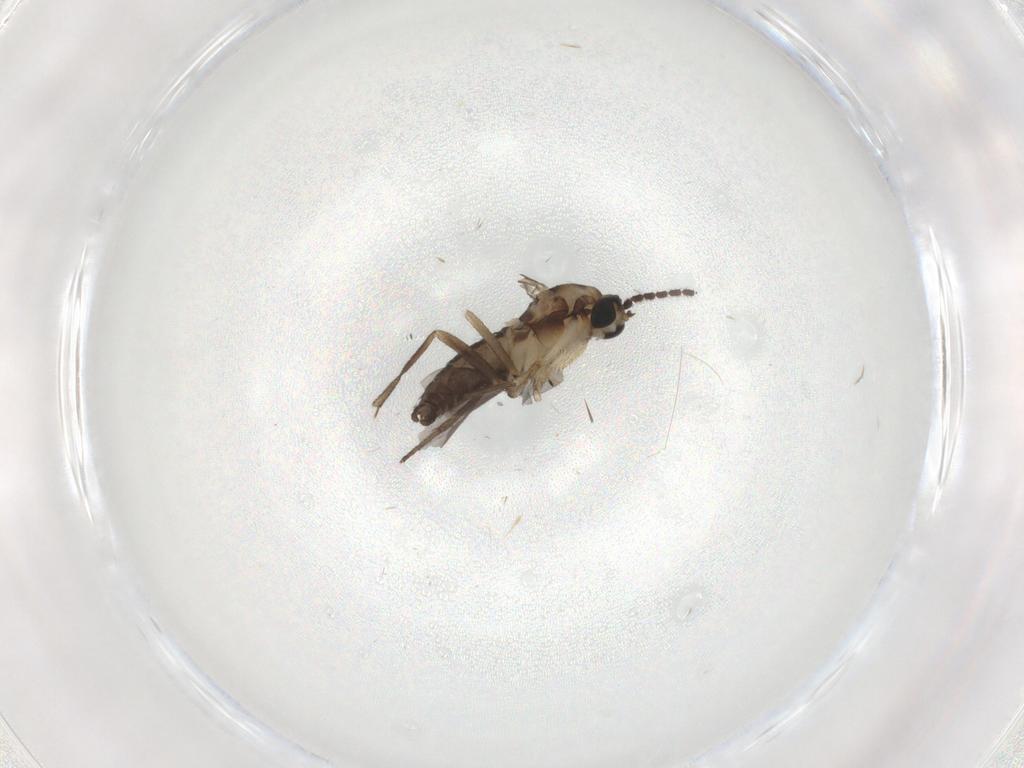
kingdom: Animalia
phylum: Arthropoda
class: Insecta
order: Diptera
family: Sciaridae
